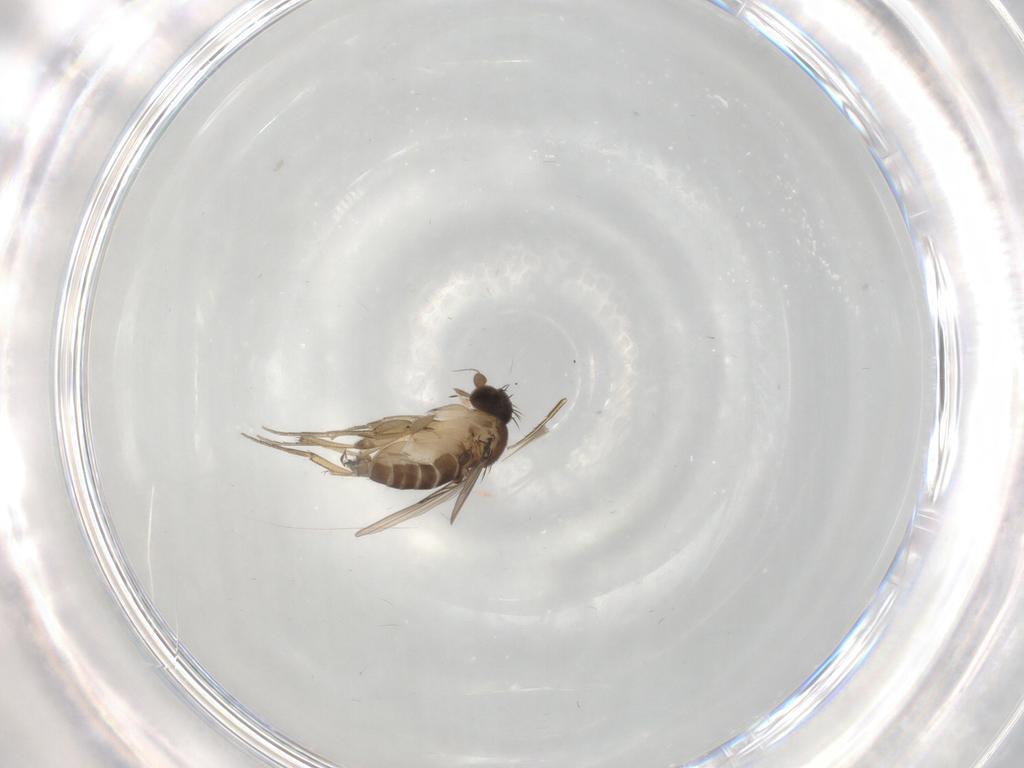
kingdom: Animalia
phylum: Arthropoda
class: Insecta
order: Diptera
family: Phoridae
